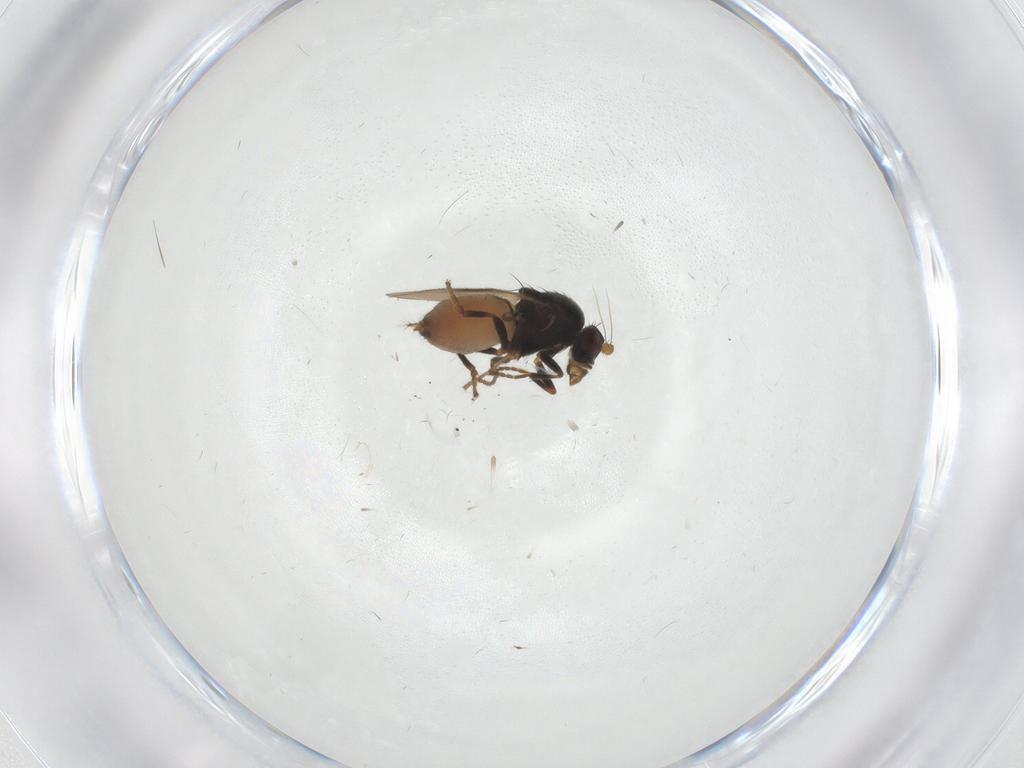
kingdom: Animalia
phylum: Arthropoda
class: Insecta
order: Diptera
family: Sphaeroceridae
